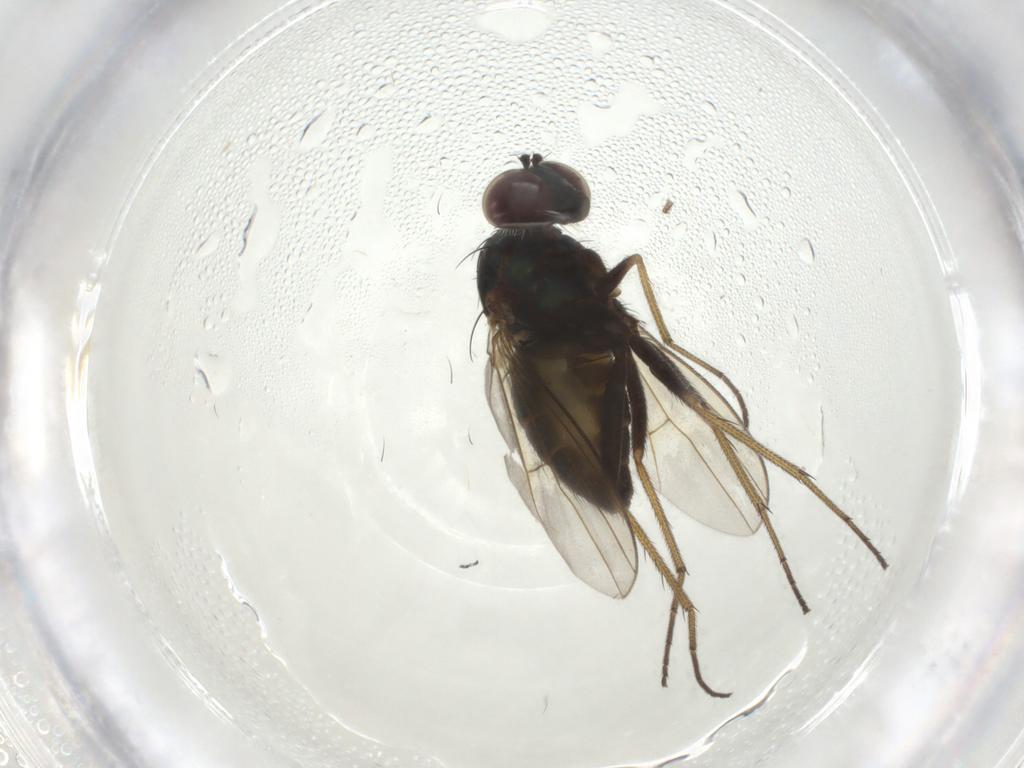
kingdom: Animalia
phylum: Arthropoda
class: Insecta
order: Diptera
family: Dolichopodidae
